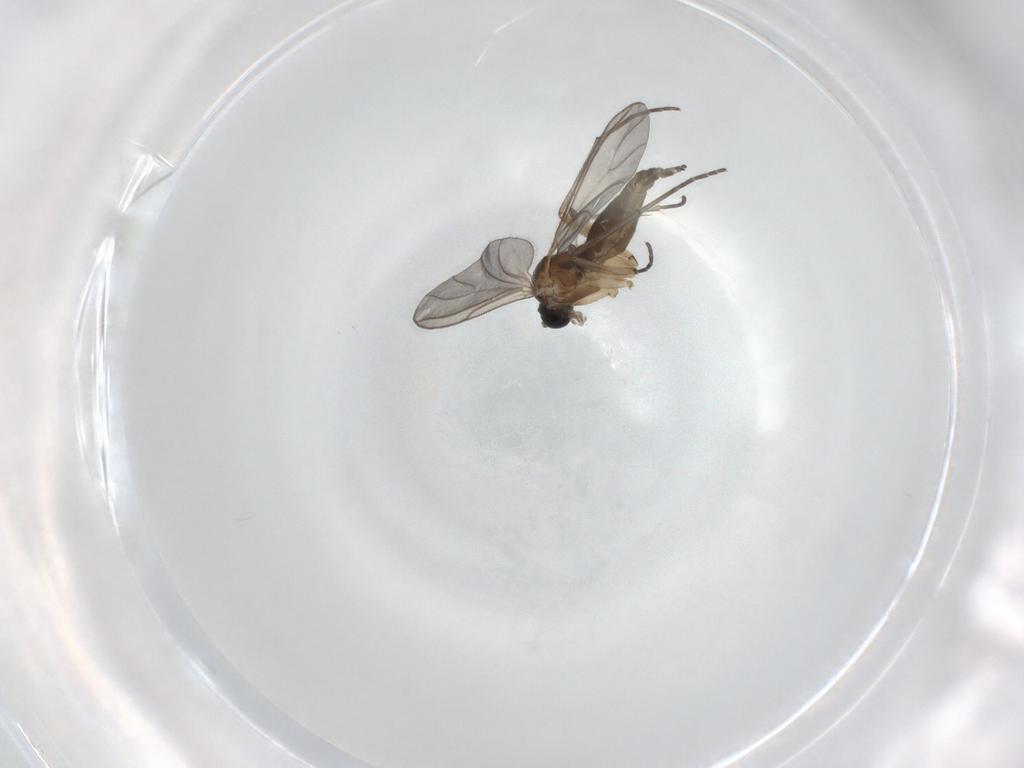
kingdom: Animalia
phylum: Arthropoda
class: Insecta
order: Diptera
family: Sciaridae
